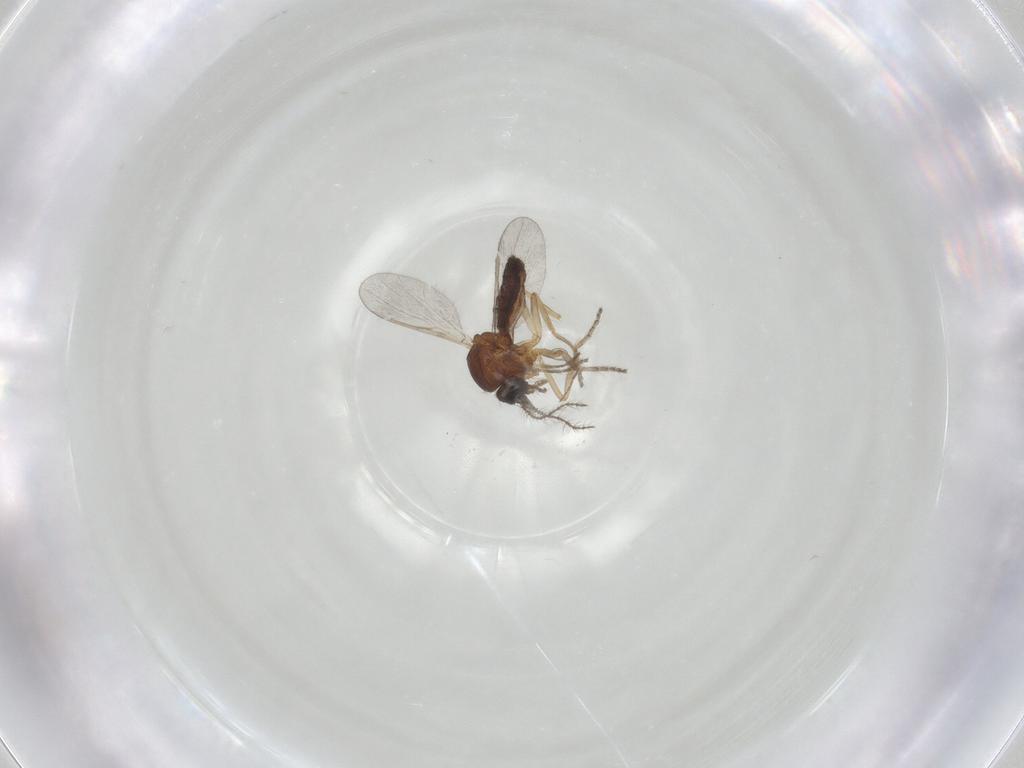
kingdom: Animalia
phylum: Arthropoda
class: Insecta
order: Diptera
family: Ceratopogonidae
